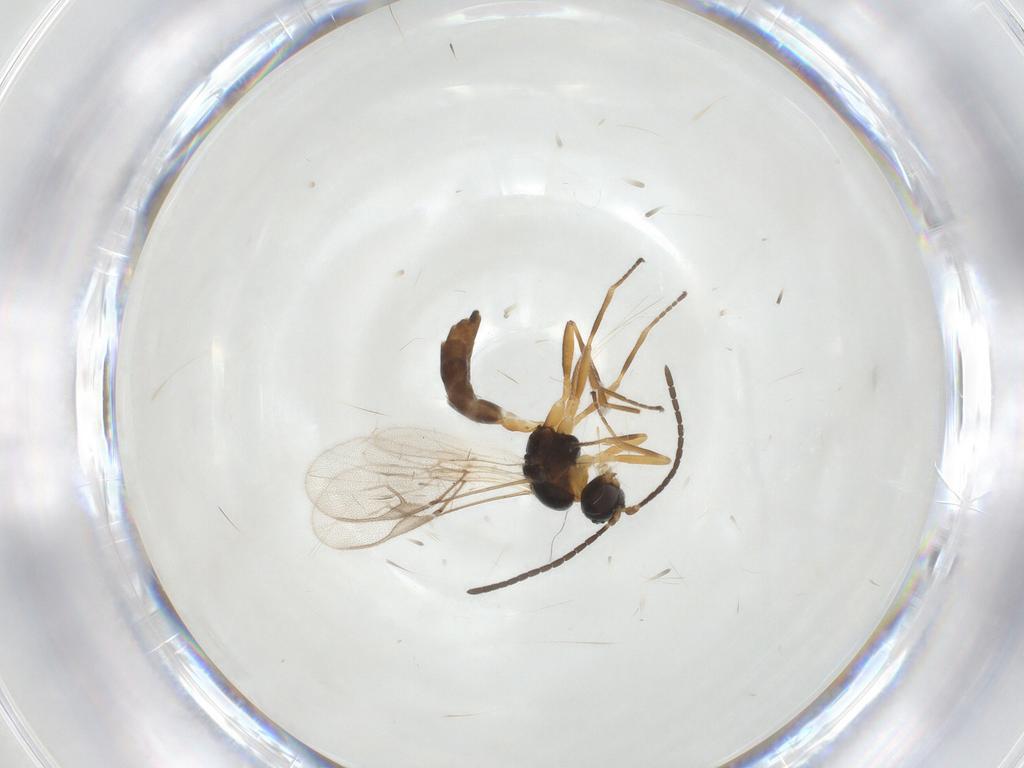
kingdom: Animalia
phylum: Arthropoda
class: Insecta
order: Hymenoptera
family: Braconidae
